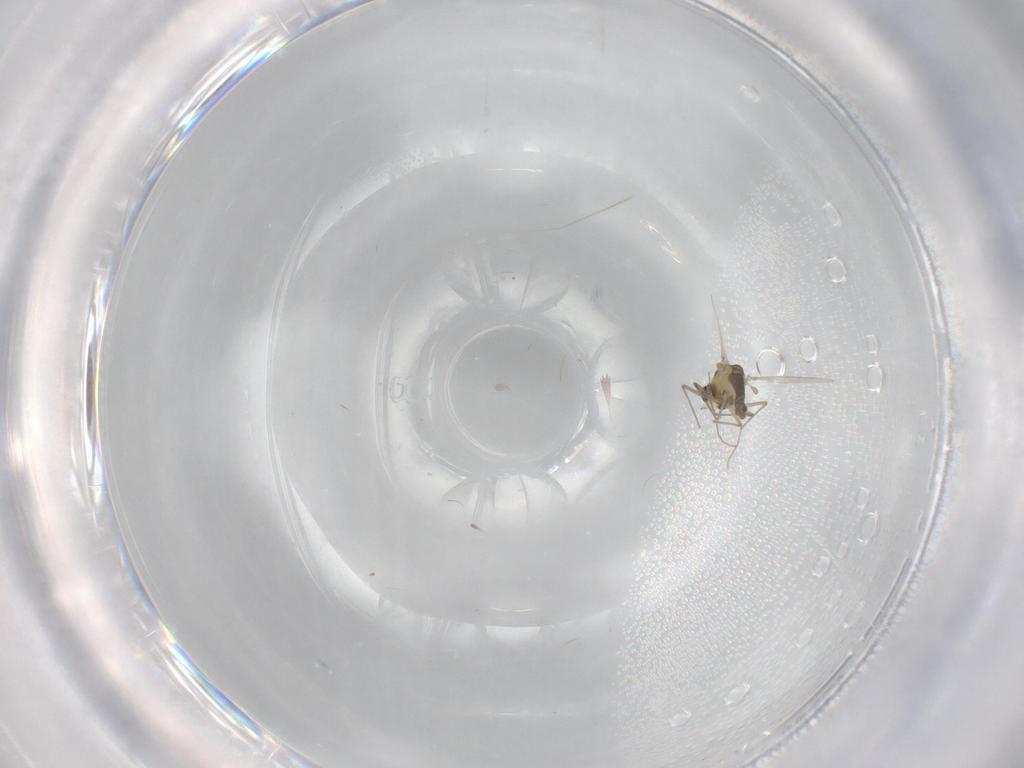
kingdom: Animalia
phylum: Arthropoda
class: Insecta
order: Diptera
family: Chironomidae
